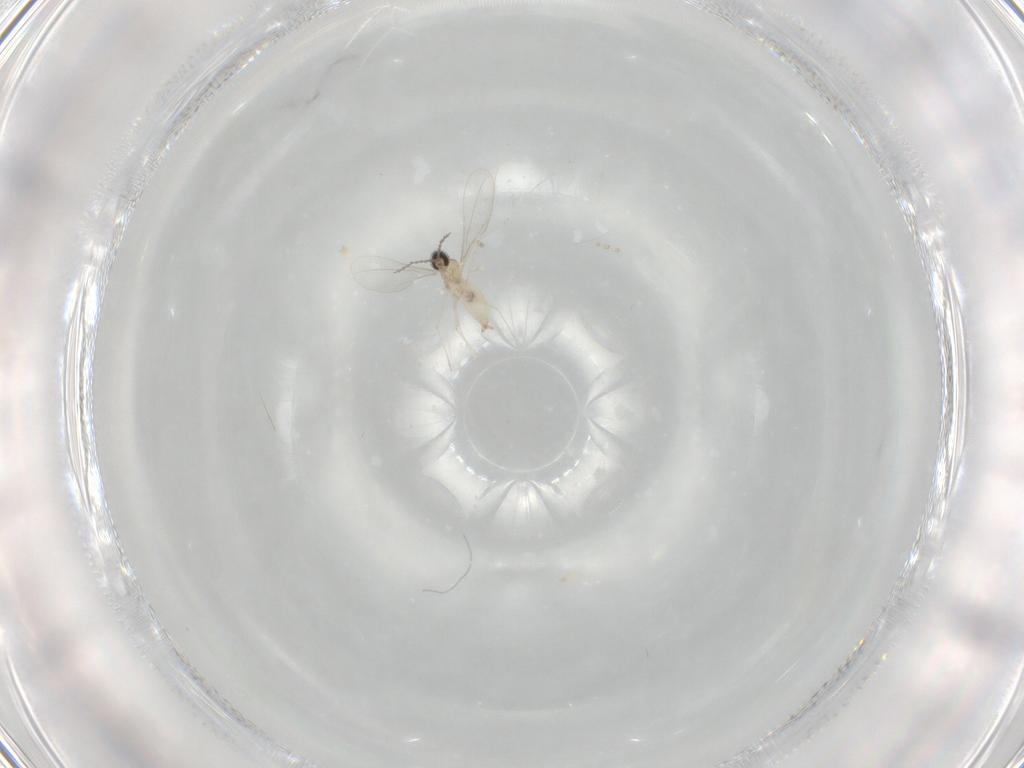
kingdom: Animalia
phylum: Arthropoda
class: Insecta
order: Diptera
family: Cecidomyiidae
